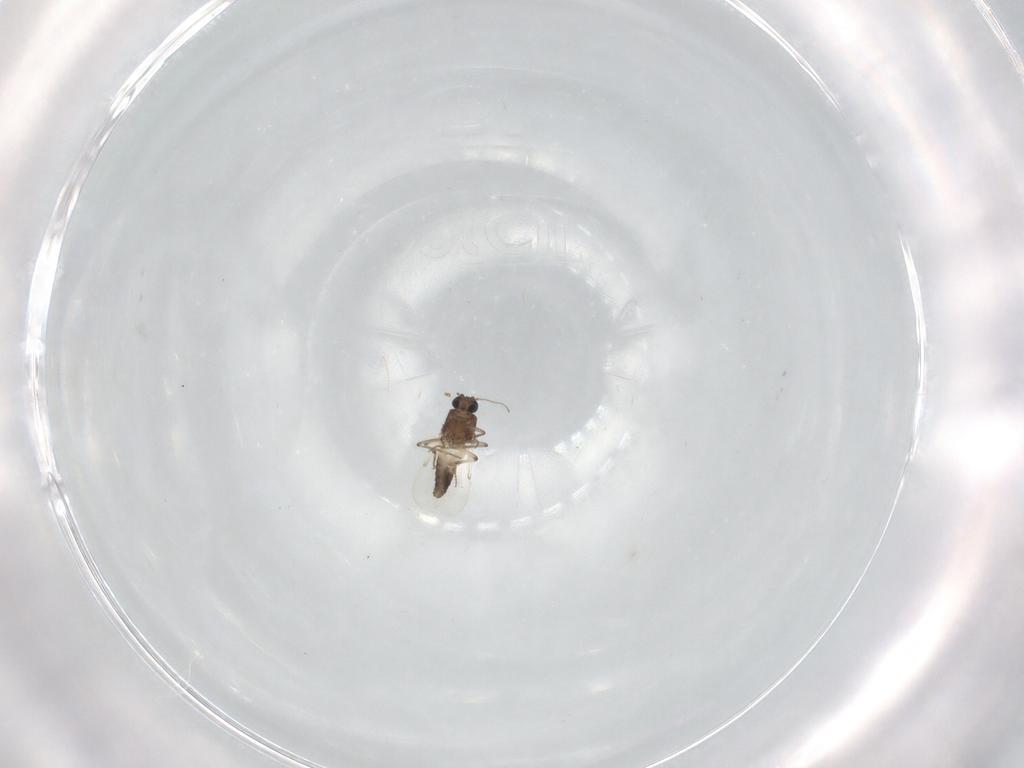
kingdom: Animalia
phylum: Arthropoda
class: Insecta
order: Diptera
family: Ceratopogonidae
